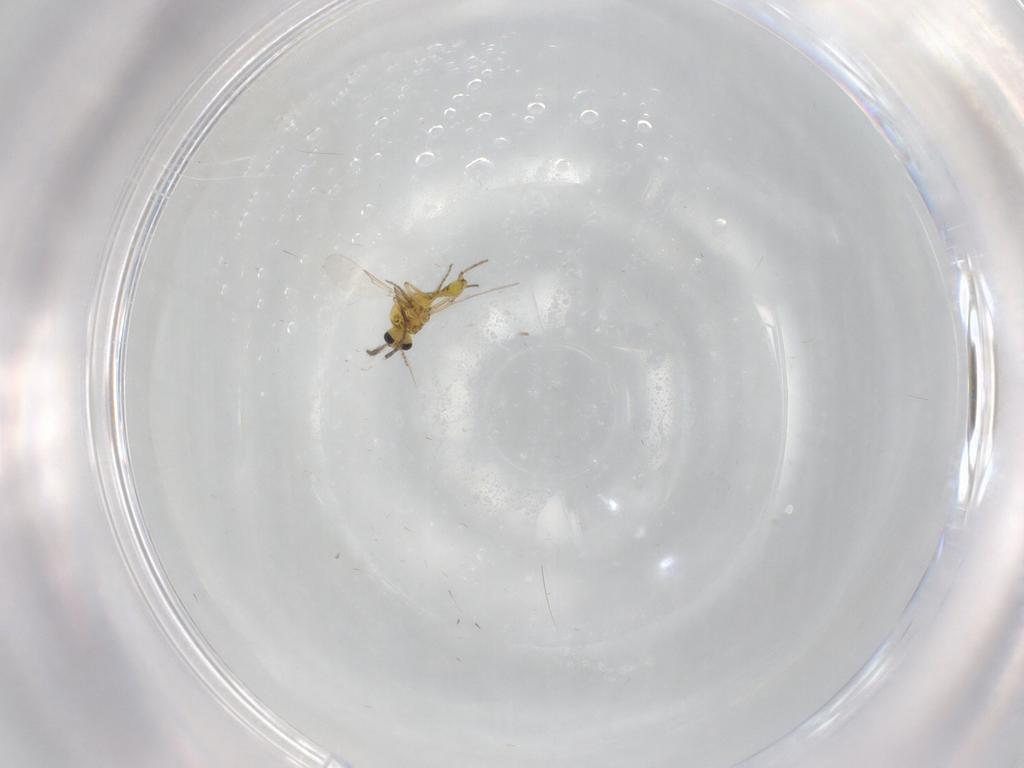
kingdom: Animalia
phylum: Arthropoda
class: Insecta
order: Diptera
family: Ceratopogonidae
